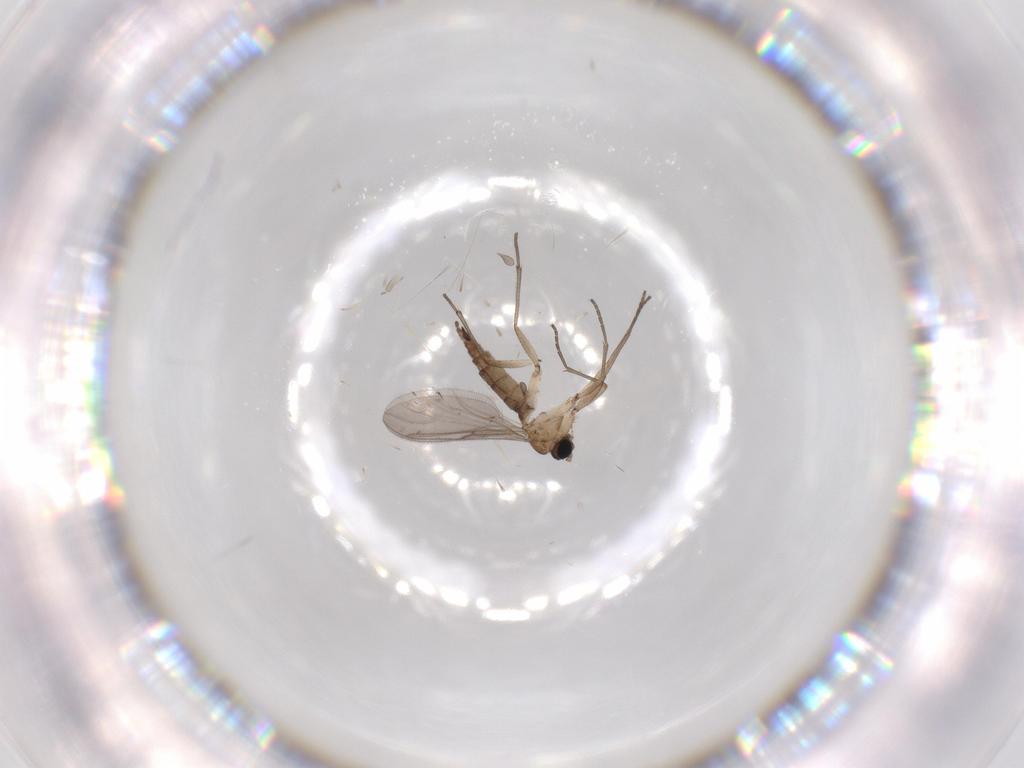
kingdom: Animalia
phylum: Arthropoda
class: Insecta
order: Diptera
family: Sciaridae
